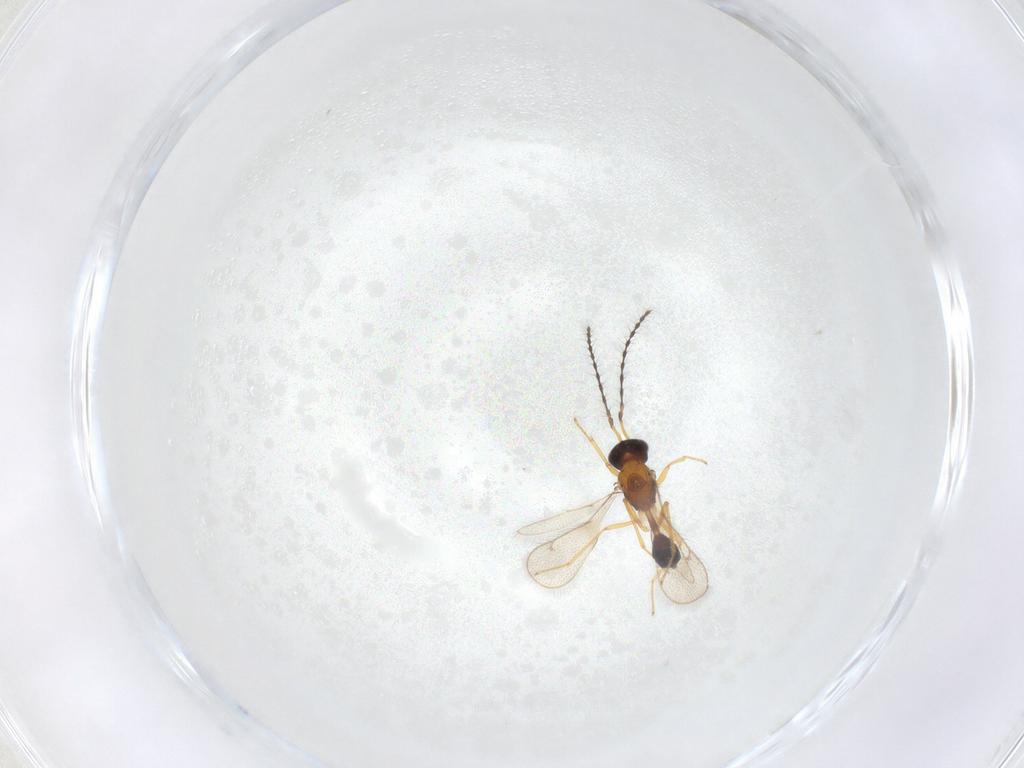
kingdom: Animalia
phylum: Arthropoda
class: Insecta
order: Hymenoptera
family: Diparidae
